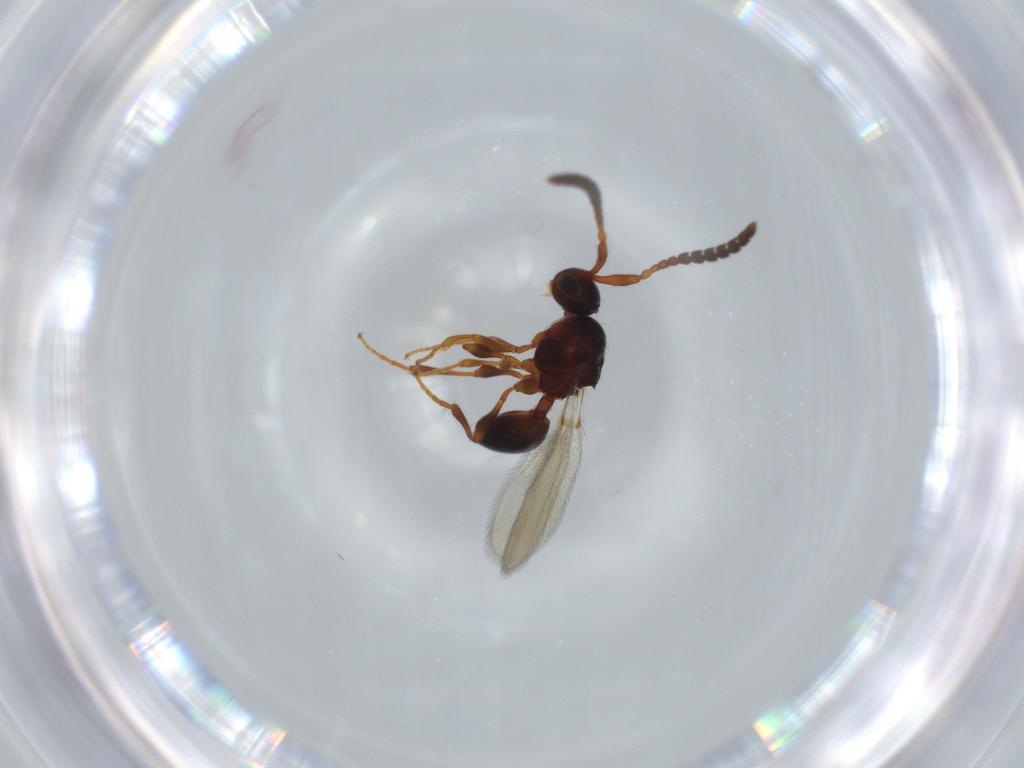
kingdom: Animalia
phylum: Arthropoda
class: Insecta
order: Hymenoptera
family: Diapriidae
